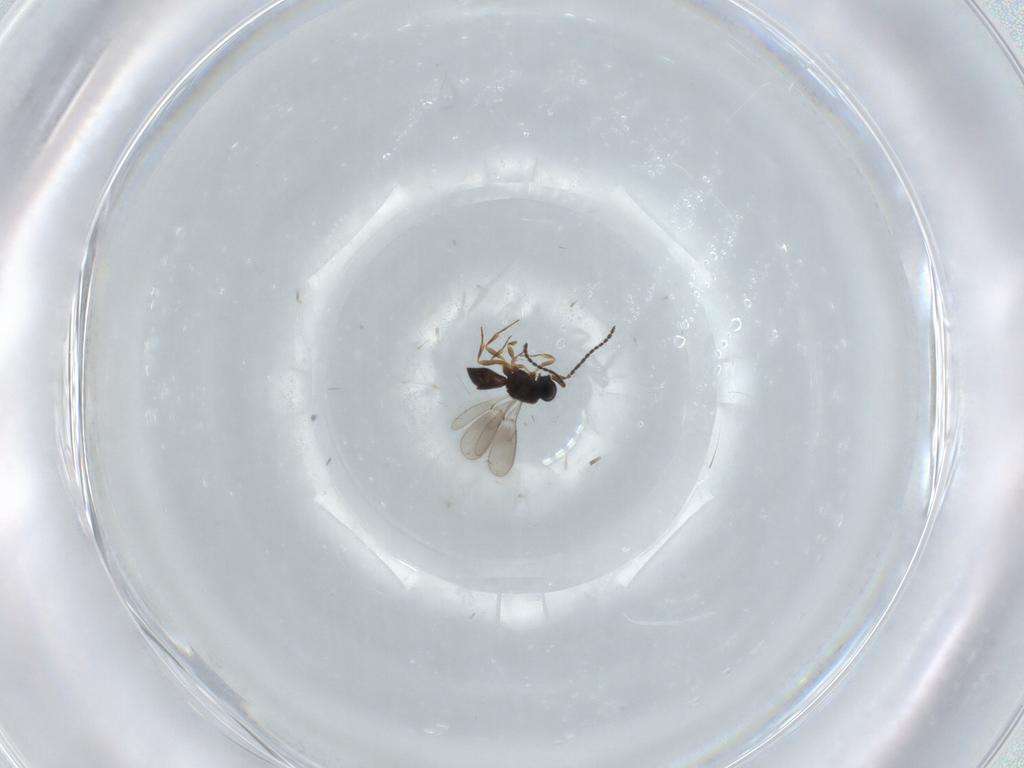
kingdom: Animalia
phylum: Arthropoda
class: Insecta
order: Hymenoptera
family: Scelionidae
